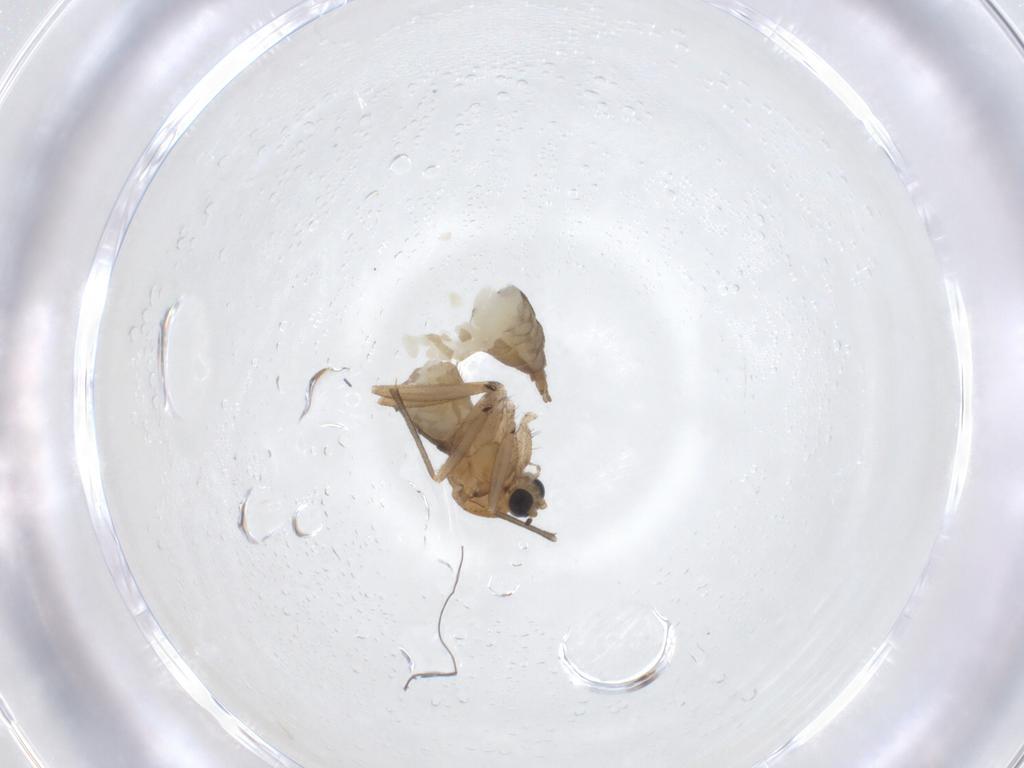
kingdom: Animalia
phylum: Arthropoda
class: Insecta
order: Diptera
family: Sciaridae
